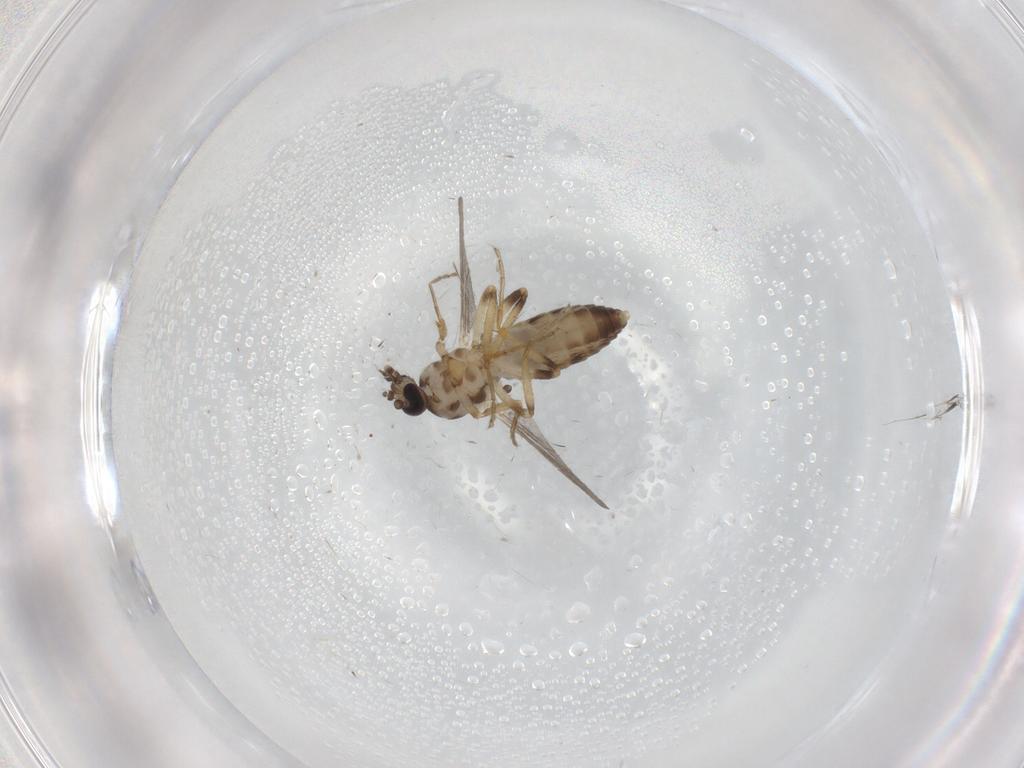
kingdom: Animalia
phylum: Arthropoda
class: Insecta
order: Diptera
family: Ceratopogonidae
